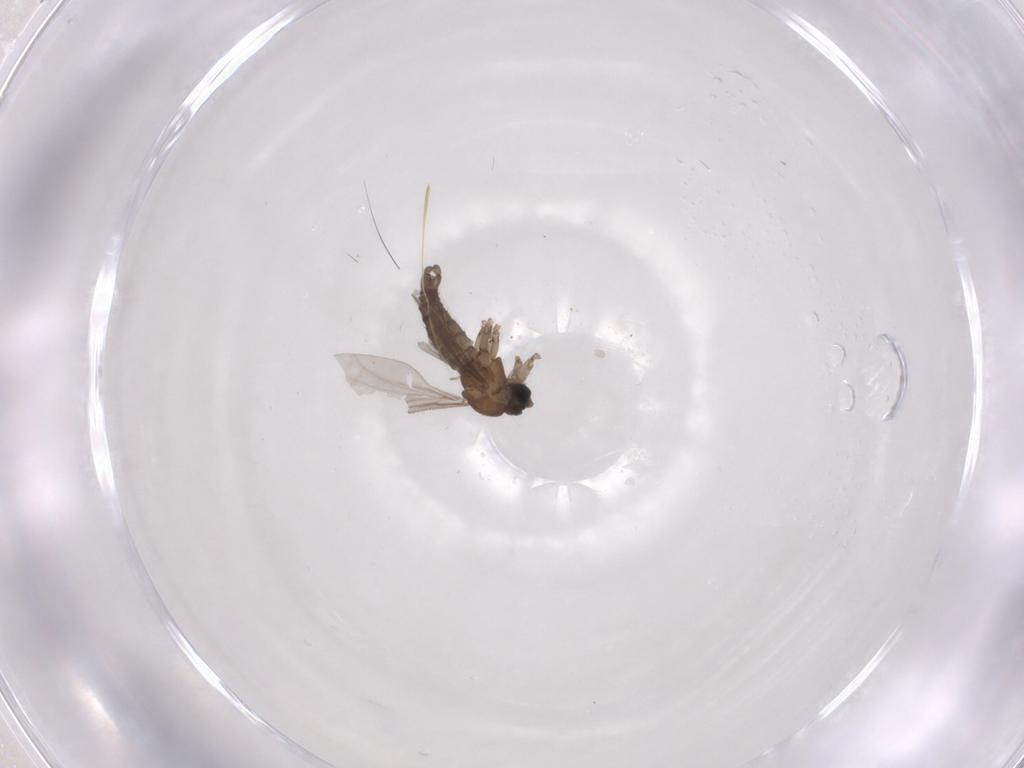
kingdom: Animalia
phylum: Arthropoda
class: Insecta
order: Diptera
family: Sciaridae
